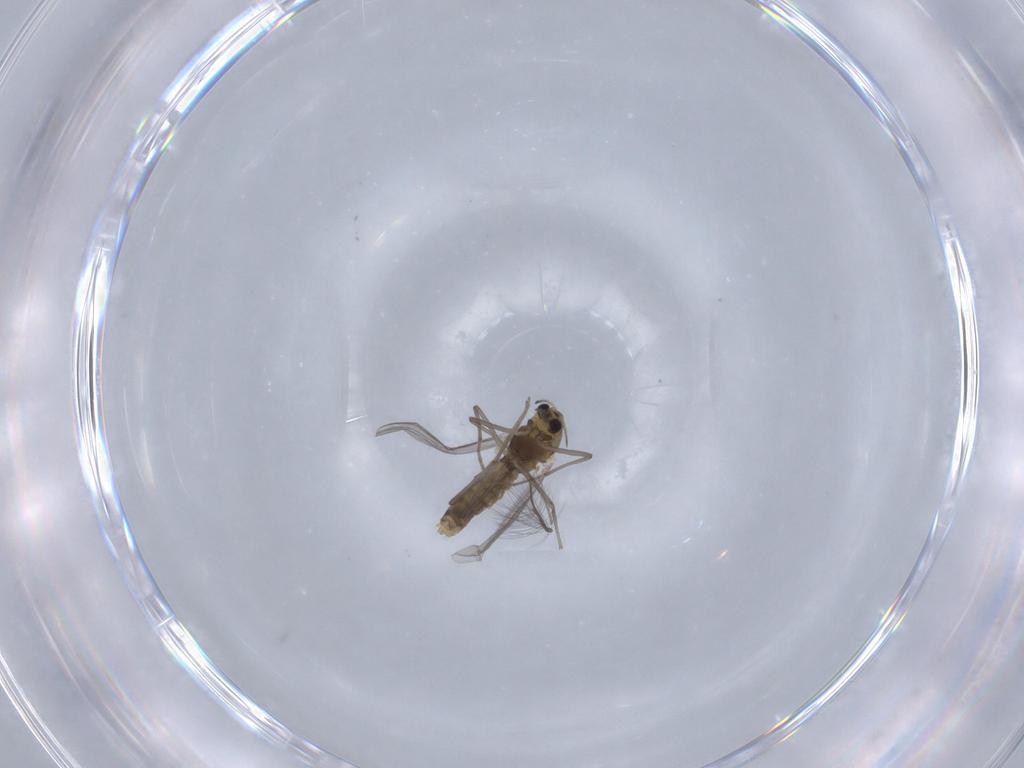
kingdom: Animalia
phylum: Arthropoda
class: Insecta
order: Diptera
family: Chironomidae
